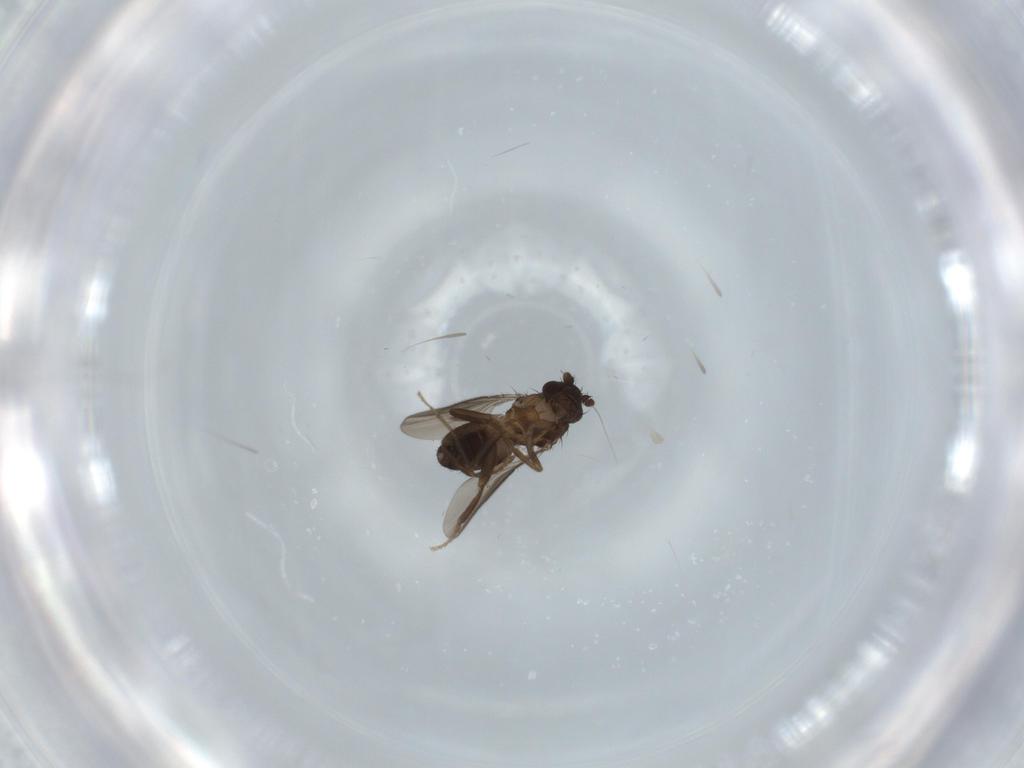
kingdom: Animalia
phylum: Arthropoda
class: Insecta
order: Diptera
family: Sphaeroceridae
